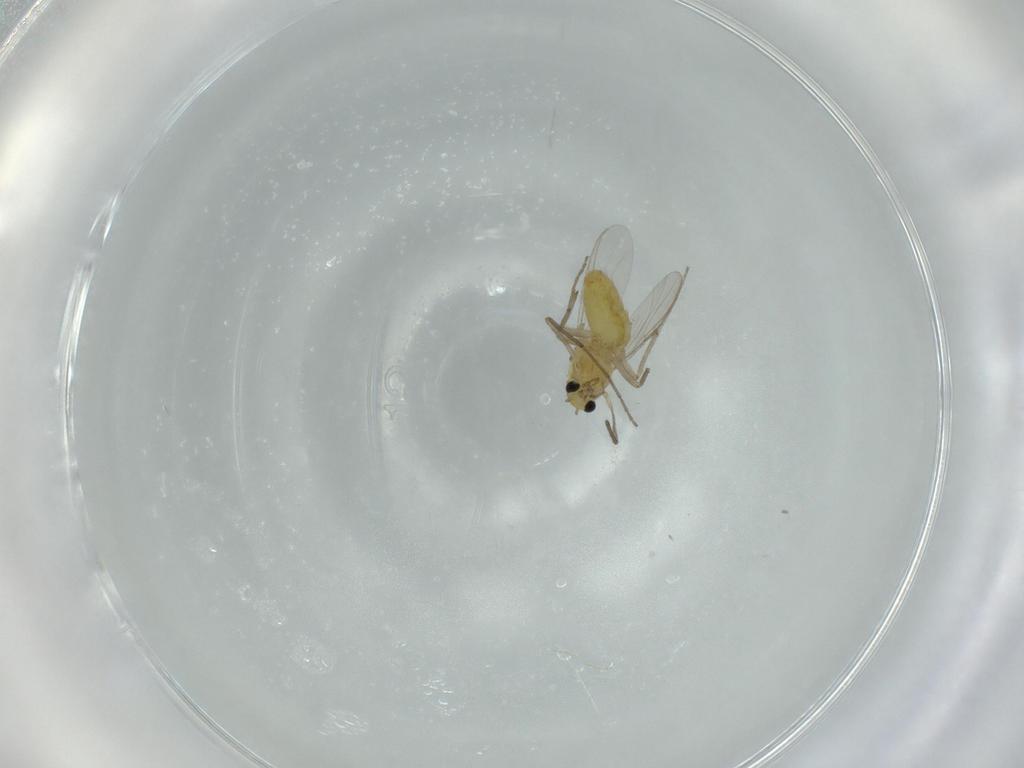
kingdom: Animalia
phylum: Arthropoda
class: Insecta
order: Diptera
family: Chironomidae
